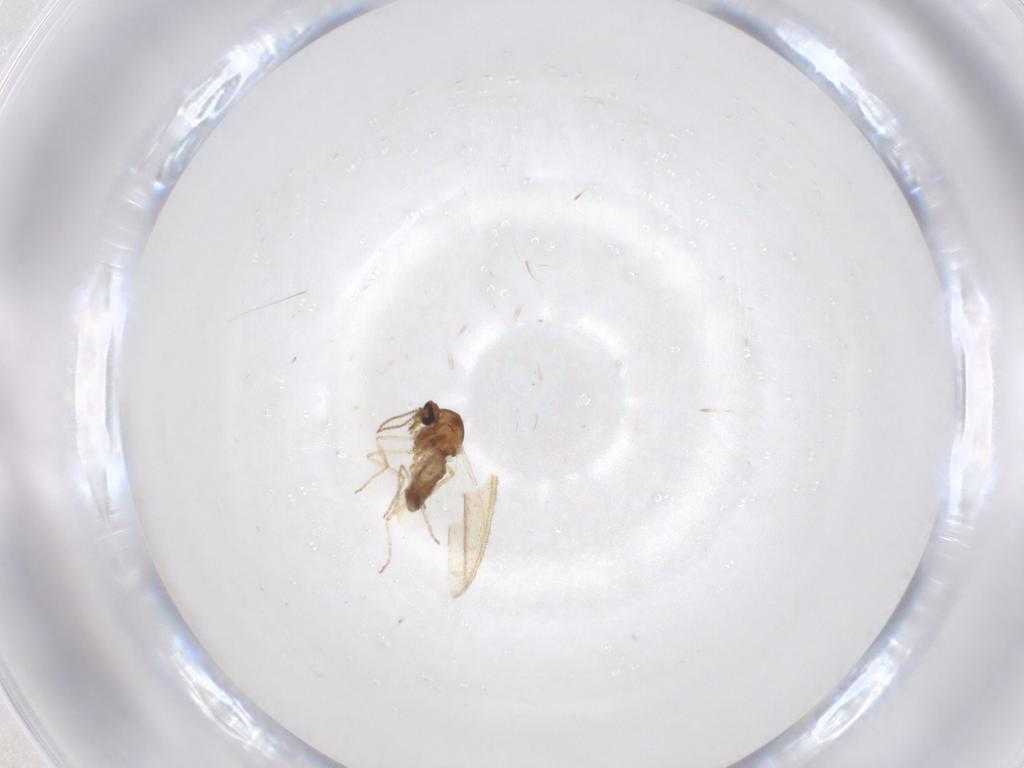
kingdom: Animalia
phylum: Arthropoda
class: Insecta
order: Diptera
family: Ceratopogonidae
